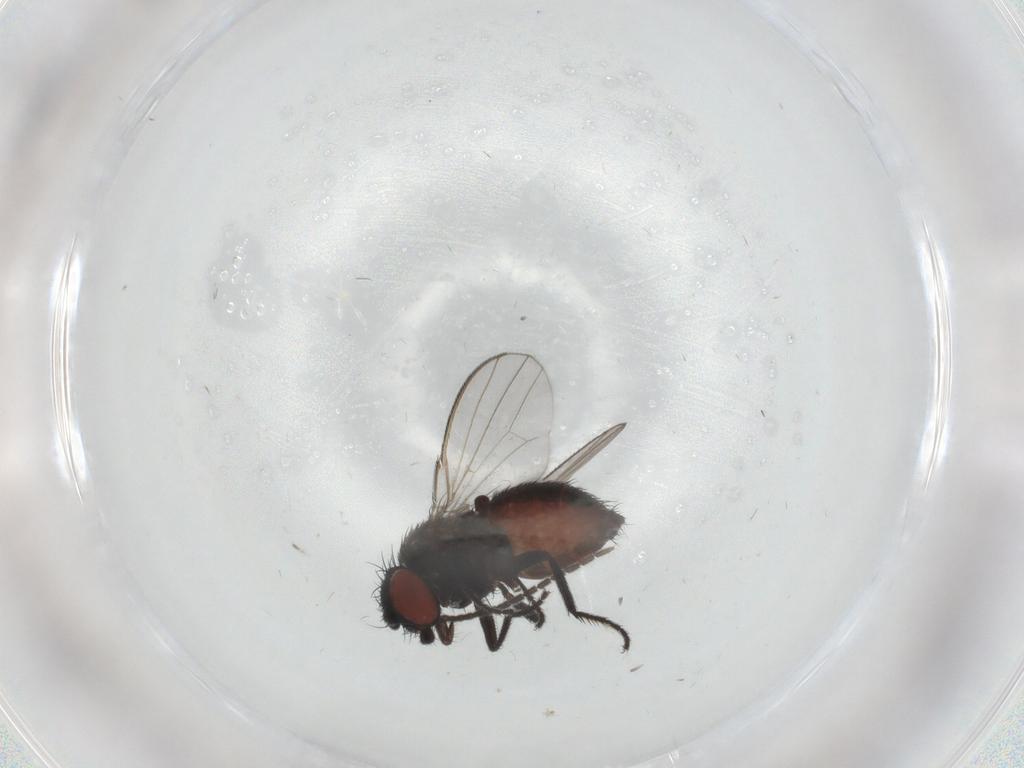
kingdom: Animalia
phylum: Arthropoda
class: Insecta
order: Diptera
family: Milichiidae
